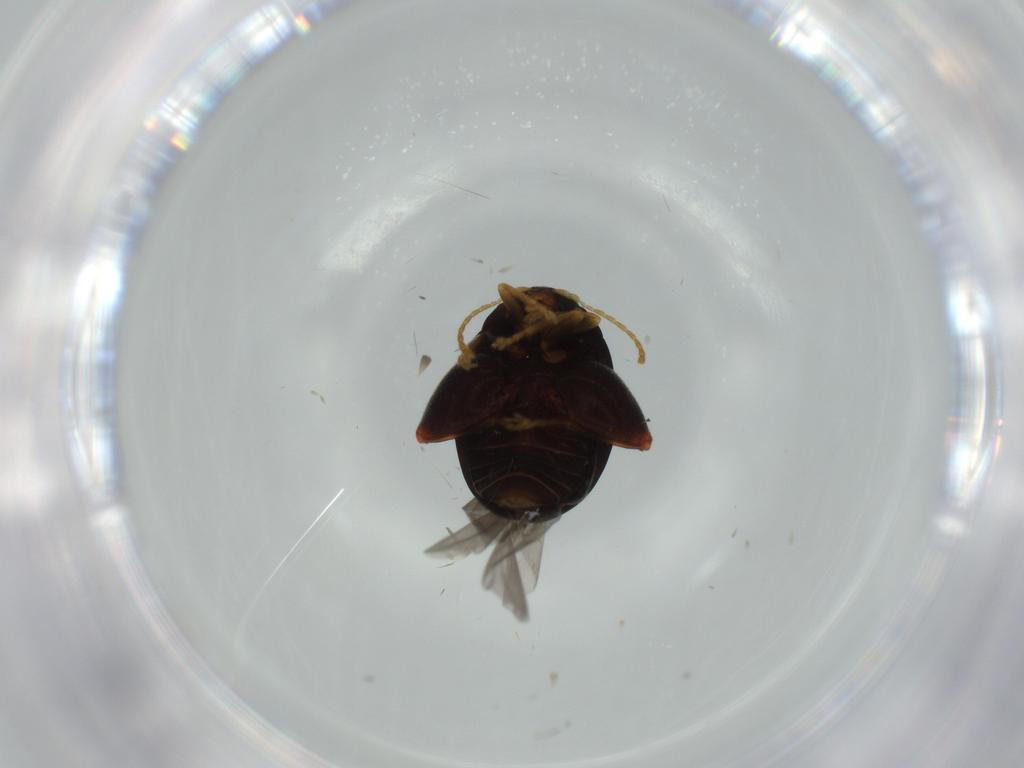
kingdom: Animalia
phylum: Arthropoda
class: Insecta
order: Coleoptera
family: Chrysomelidae
